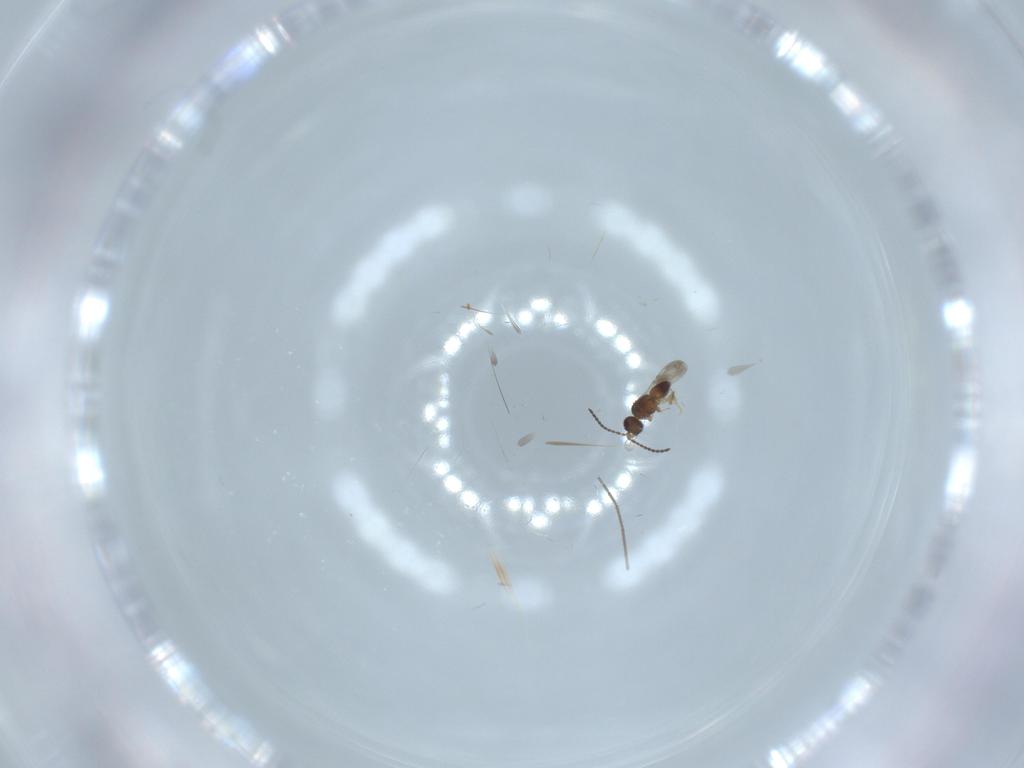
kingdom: Animalia
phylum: Arthropoda
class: Insecta
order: Hymenoptera
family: Ceraphronidae
